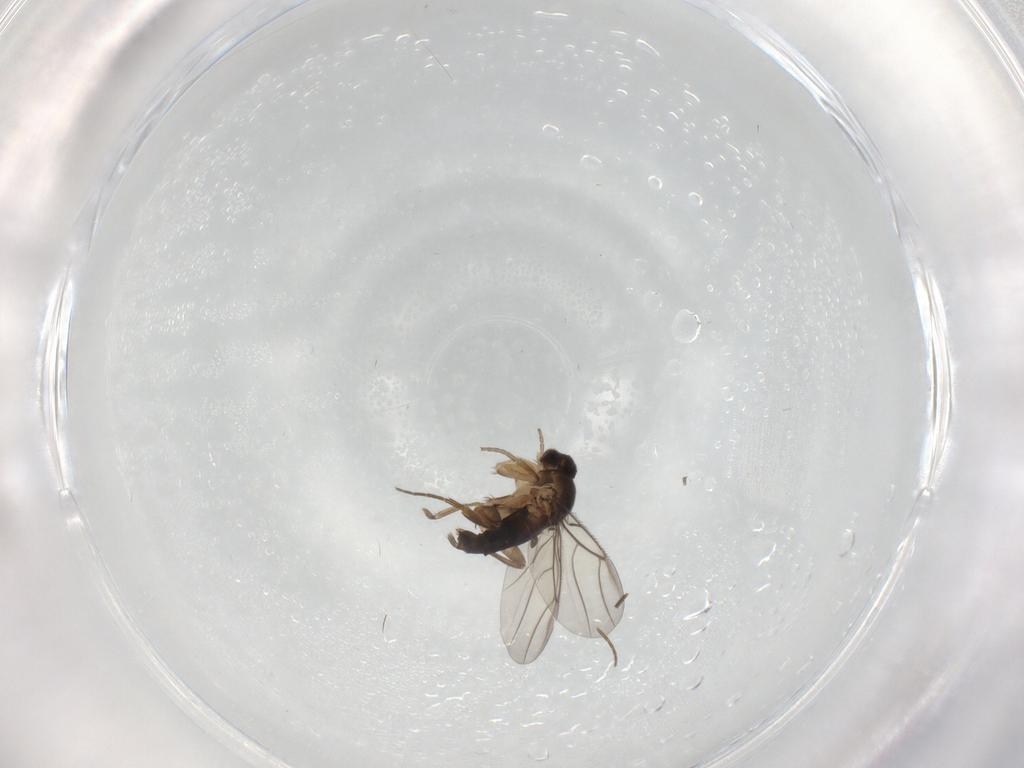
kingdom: Animalia
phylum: Arthropoda
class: Insecta
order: Diptera
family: Phoridae
